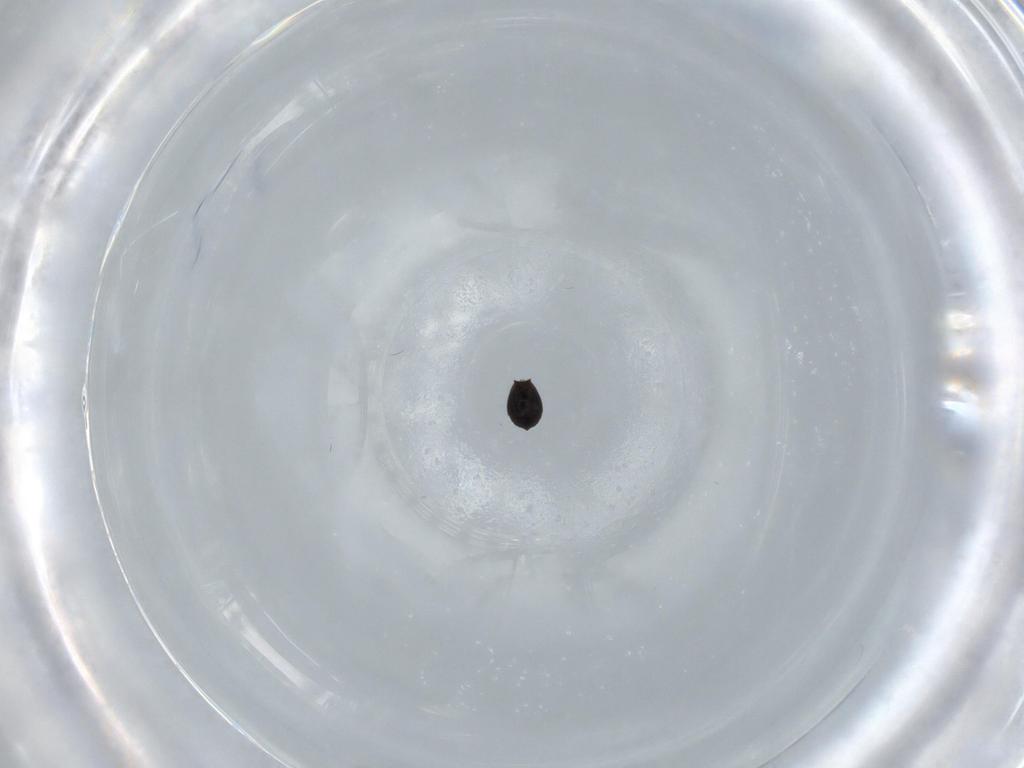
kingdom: Animalia
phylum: Arthropoda
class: Insecta
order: Hymenoptera
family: Scelionidae
